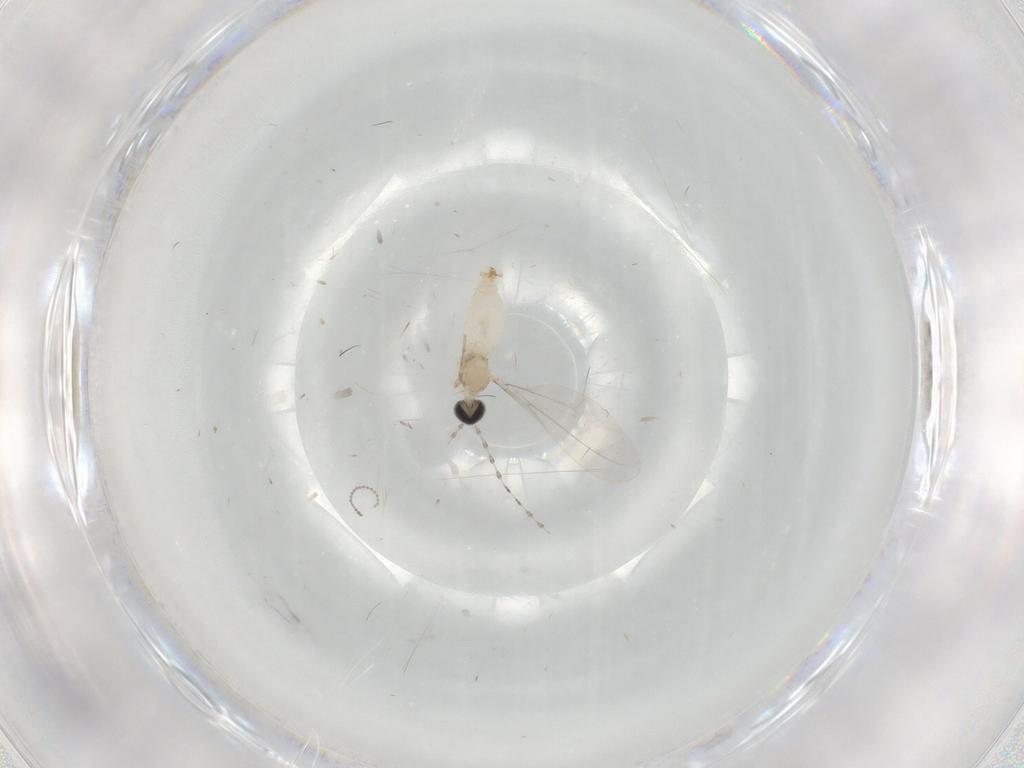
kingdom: Animalia
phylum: Arthropoda
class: Insecta
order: Diptera
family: Cecidomyiidae
